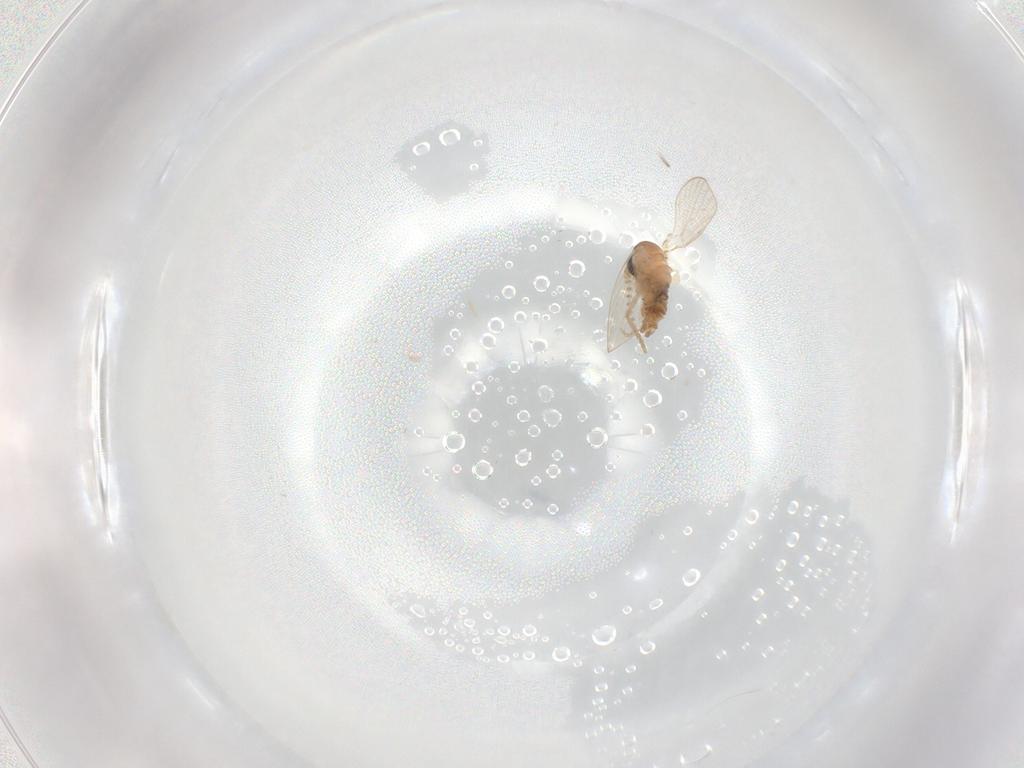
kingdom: Animalia
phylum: Arthropoda
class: Insecta
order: Diptera
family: Psychodidae
